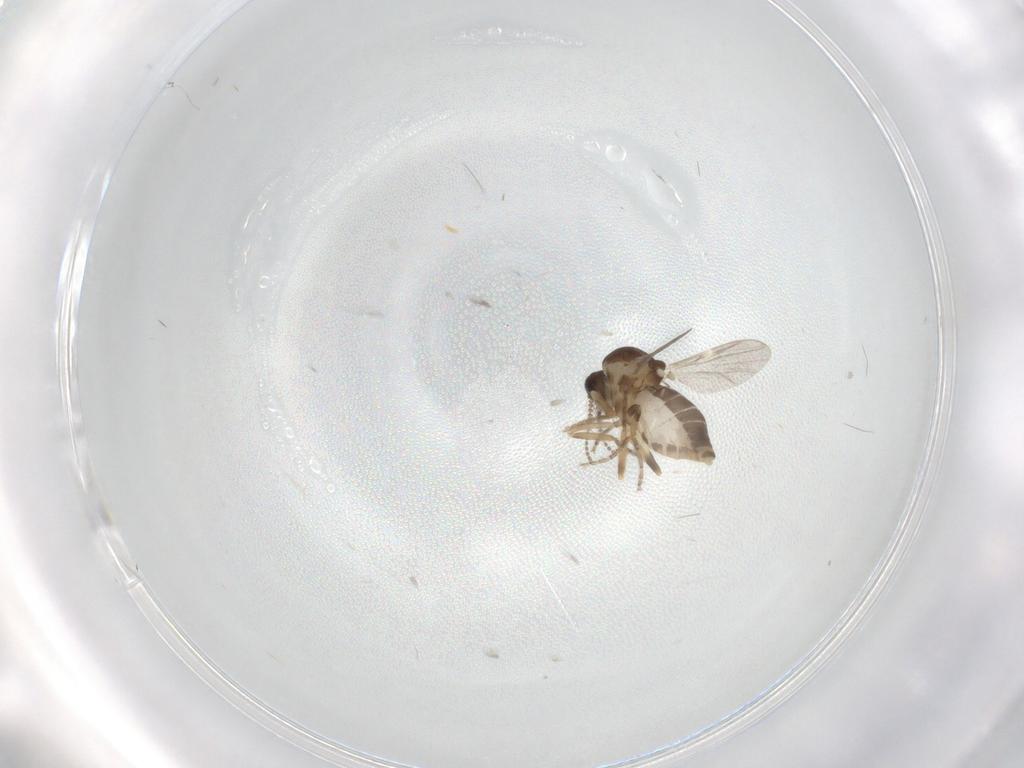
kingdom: Animalia
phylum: Arthropoda
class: Insecta
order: Diptera
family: Ceratopogonidae
